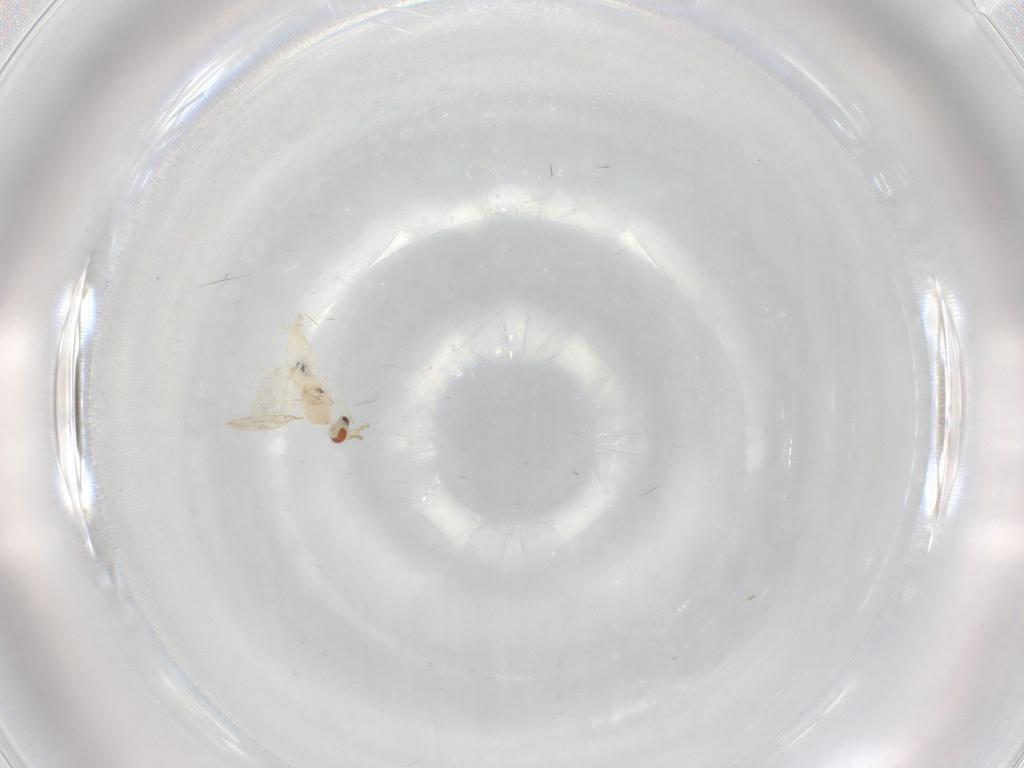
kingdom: Animalia
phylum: Arthropoda
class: Insecta
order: Diptera
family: Cecidomyiidae
